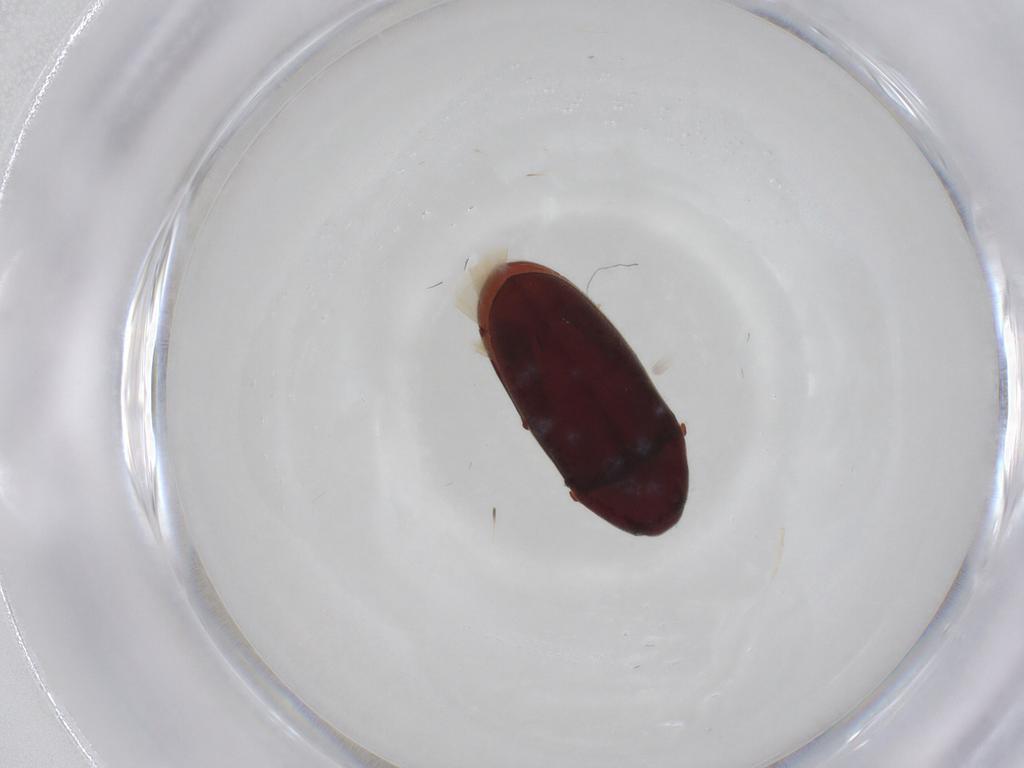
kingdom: Animalia
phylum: Arthropoda
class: Insecta
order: Coleoptera
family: Throscidae
